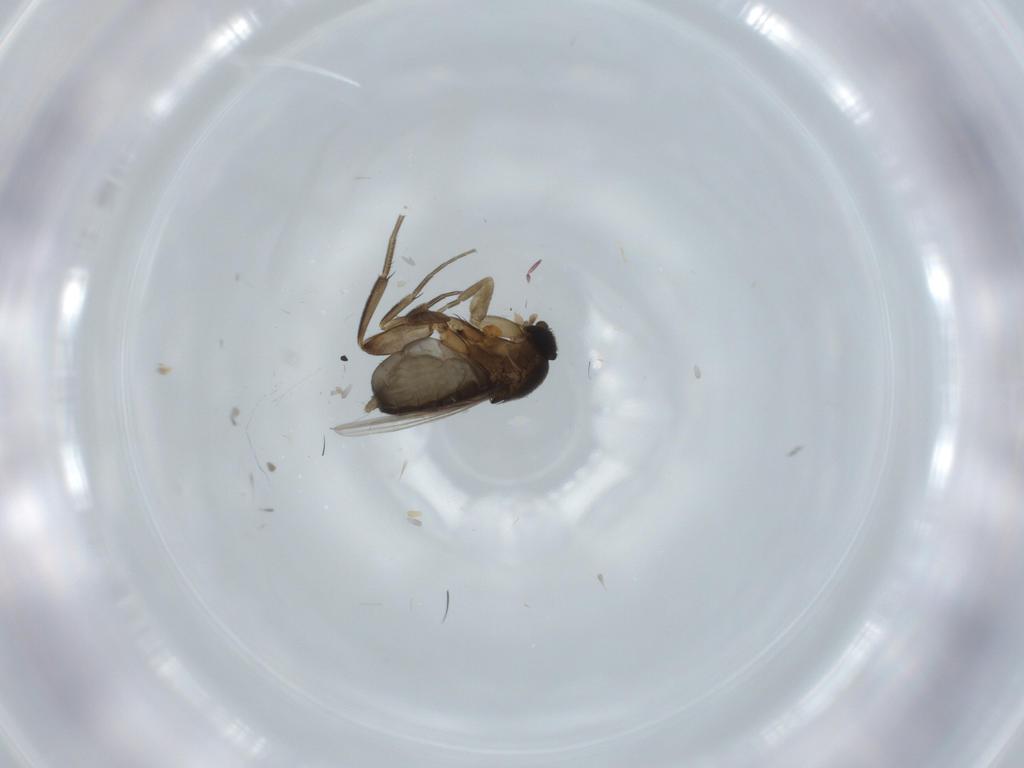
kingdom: Animalia
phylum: Arthropoda
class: Insecta
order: Diptera
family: Phoridae
